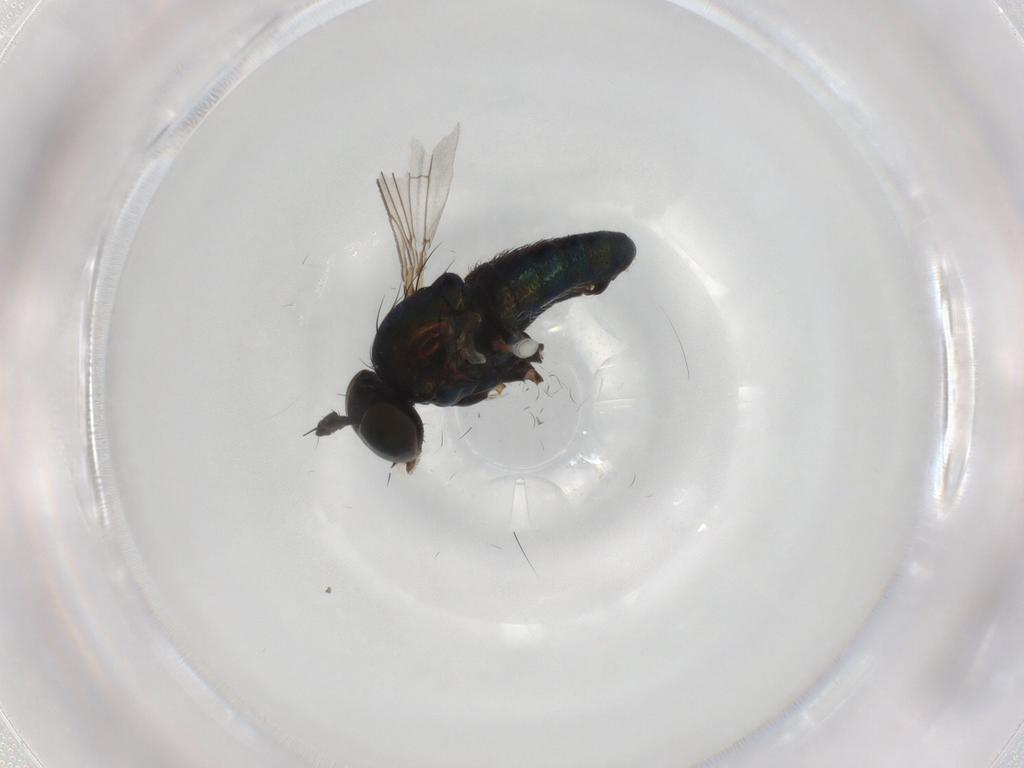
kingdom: Animalia
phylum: Arthropoda
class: Insecta
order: Diptera
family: Dolichopodidae
